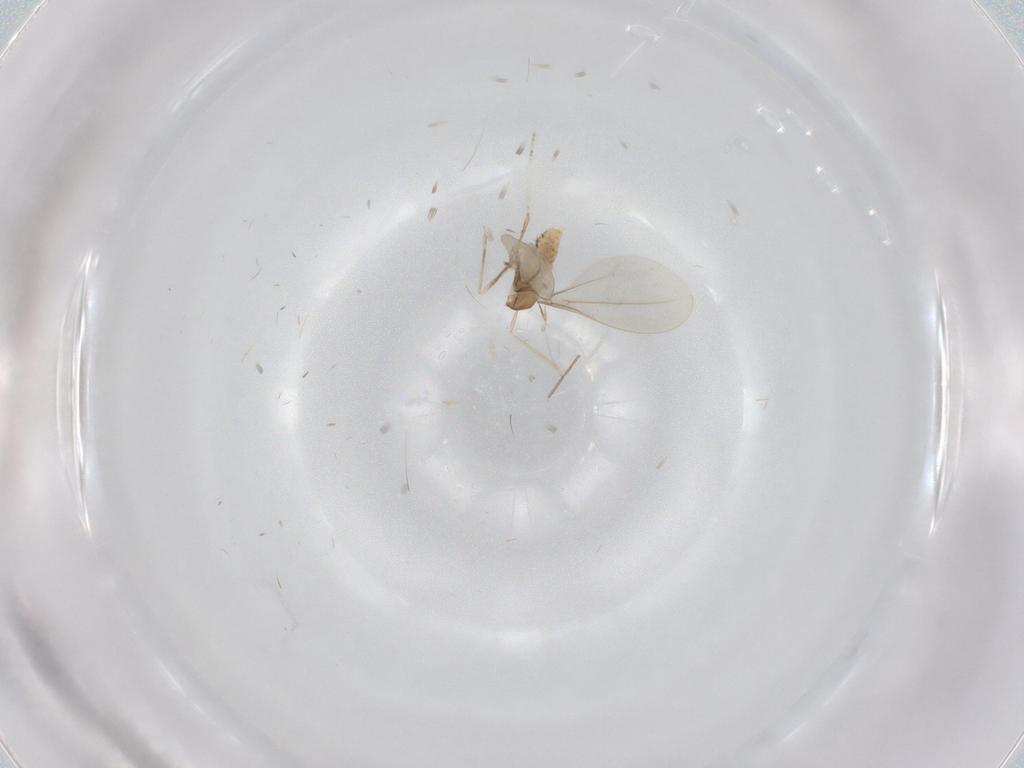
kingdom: Animalia
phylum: Arthropoda
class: Insecta
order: Diptera
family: Cecidomyiidae
